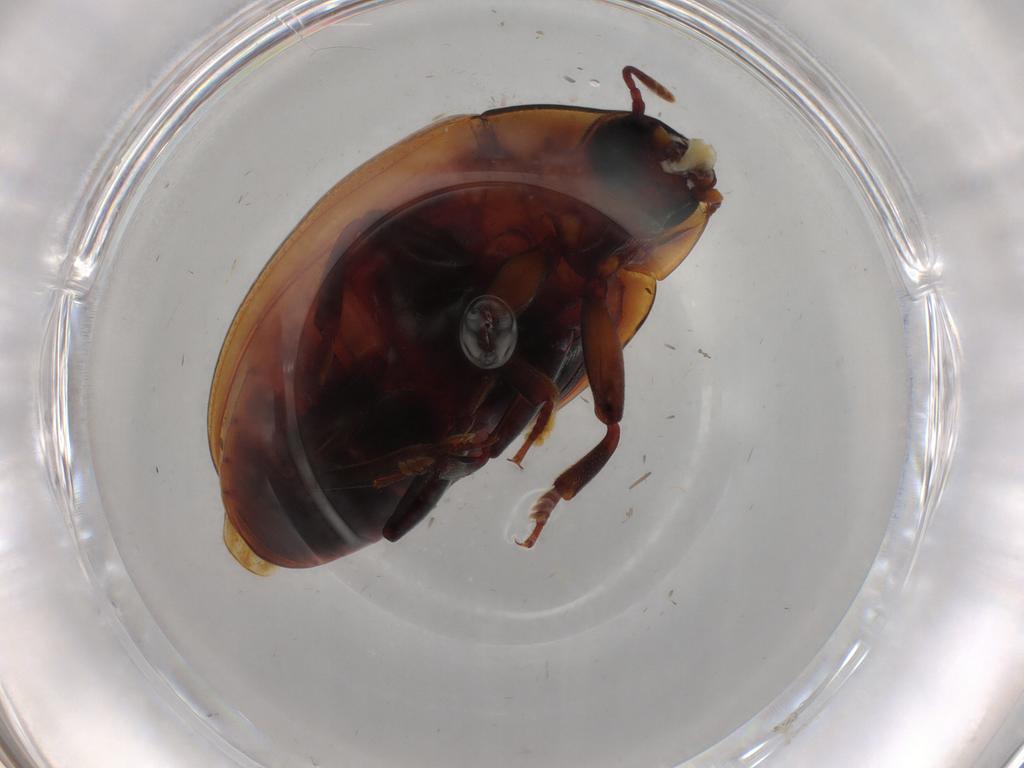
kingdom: Animalia
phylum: Arthropoda
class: Insecta
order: Coleoptera
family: Zopheridae
